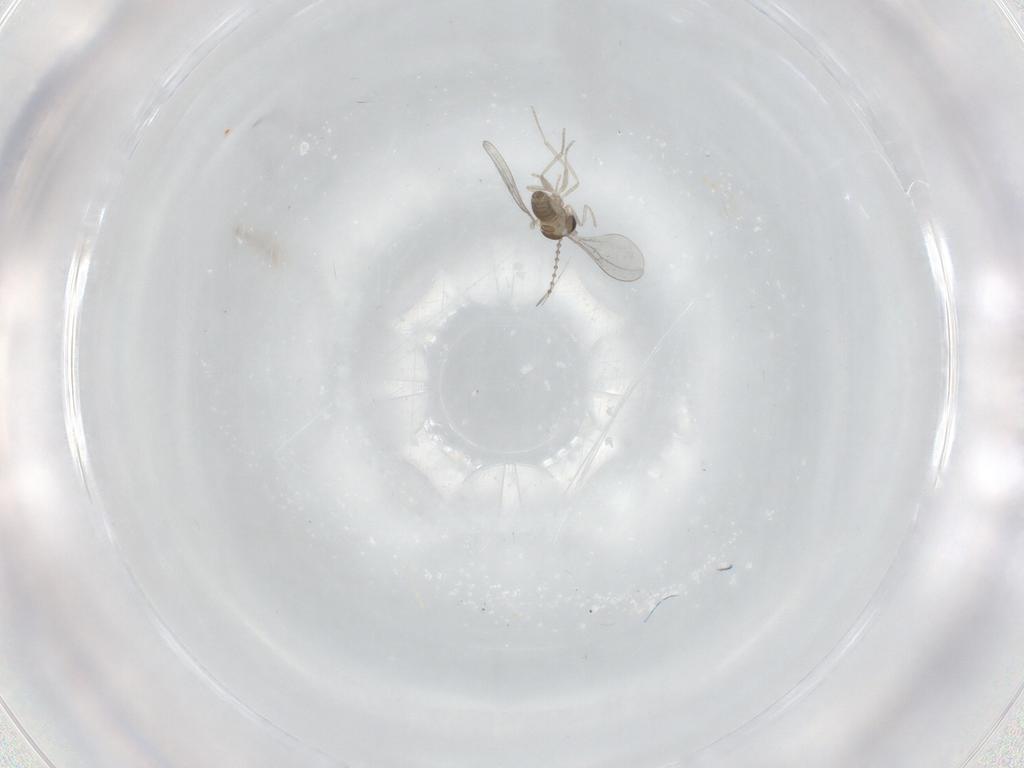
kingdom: Animalia
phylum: Arthropoda
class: Insecta
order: Diptera
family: Cecidomyiidae
